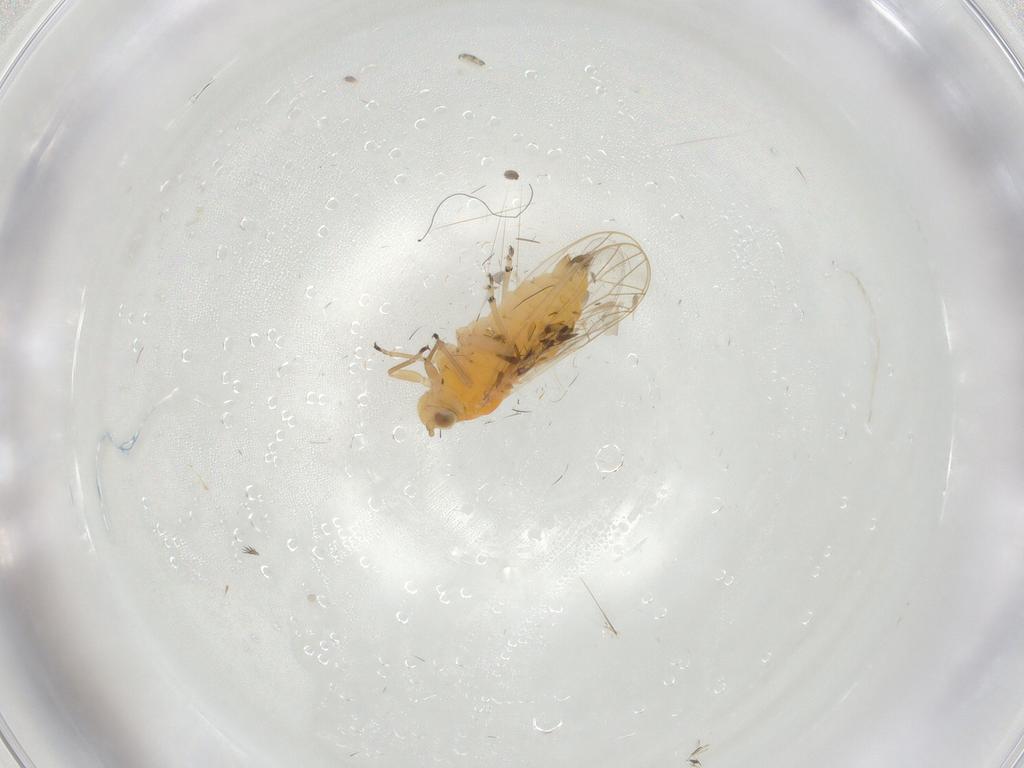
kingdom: Animalia
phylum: Arthropoda
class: Insecta
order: Hemiptera
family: Cixiidae
